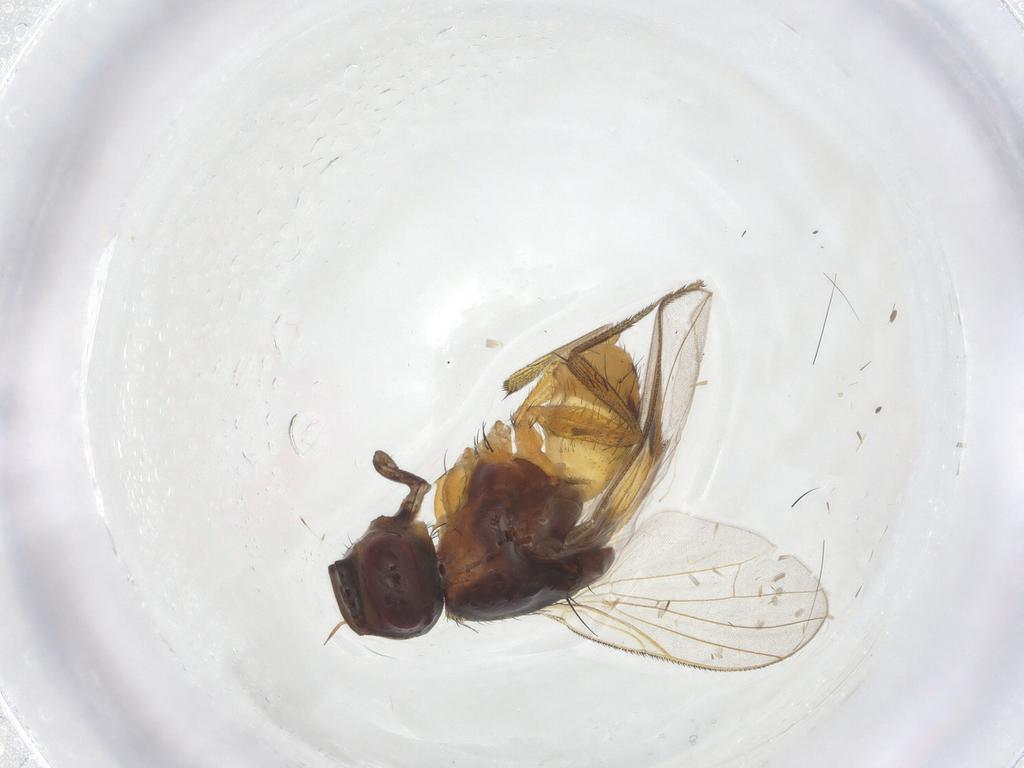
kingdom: Animalia
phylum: Arthropoda
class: Insecta
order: Diptera
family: Muscidae
